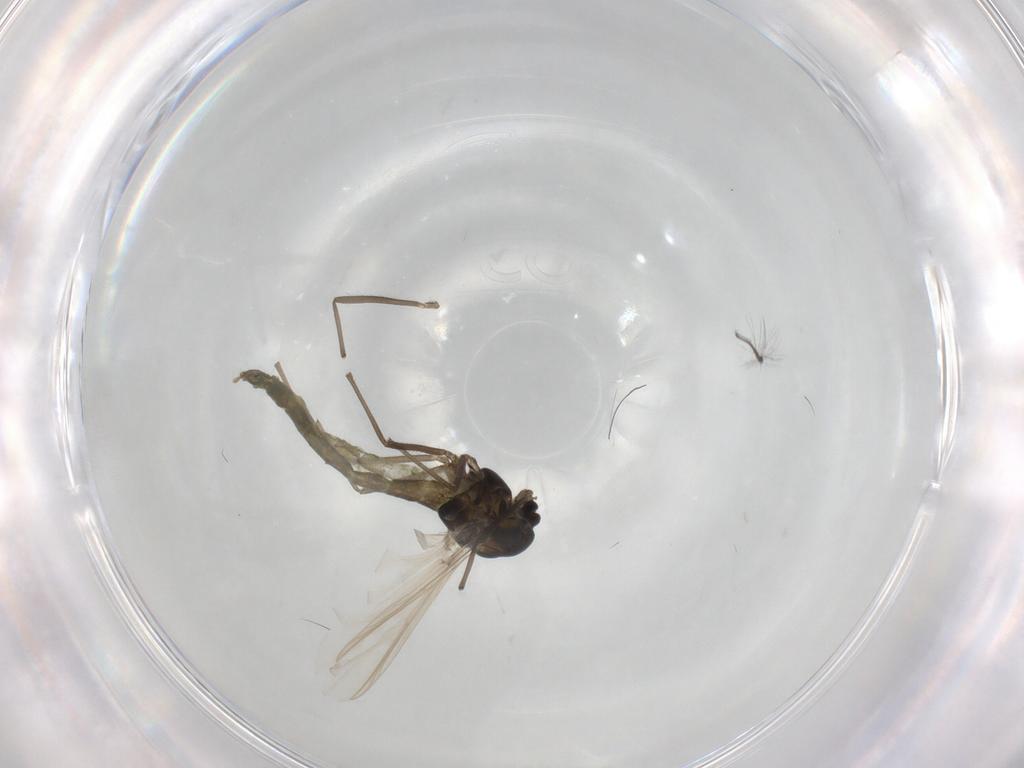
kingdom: Animalia
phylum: Arthropoda
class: Insecta
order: Diptera
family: Chironomidae
